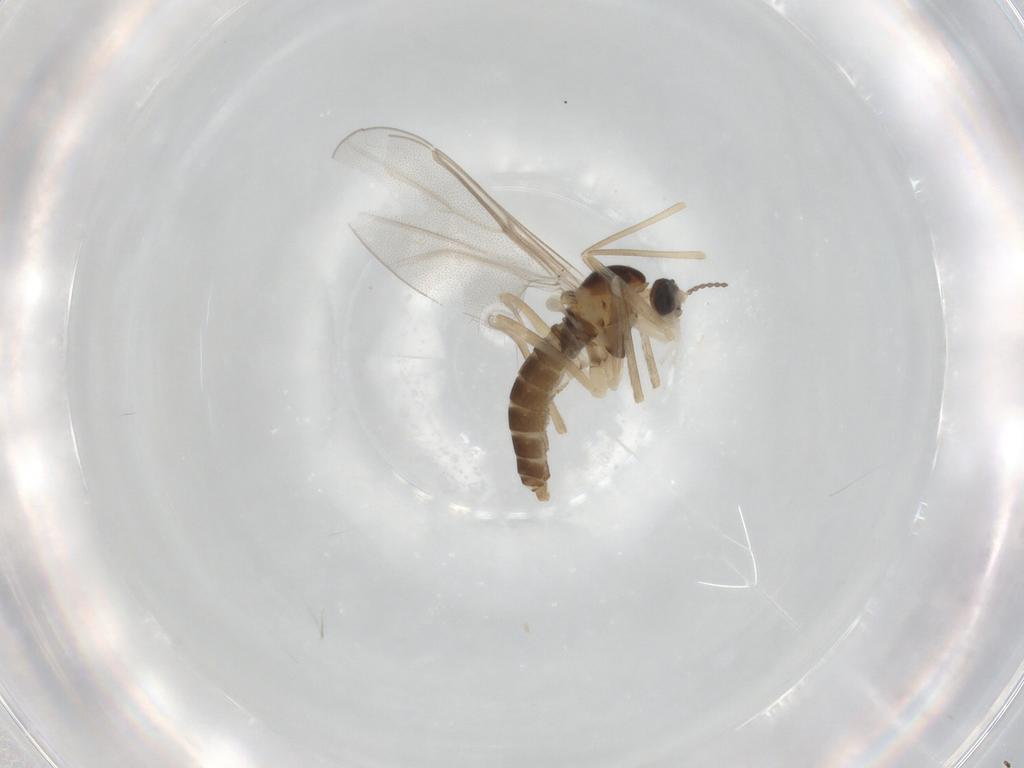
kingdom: Animalia
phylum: Arthropoda
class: Insecta
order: Diptera
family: Cecidomyiidae
